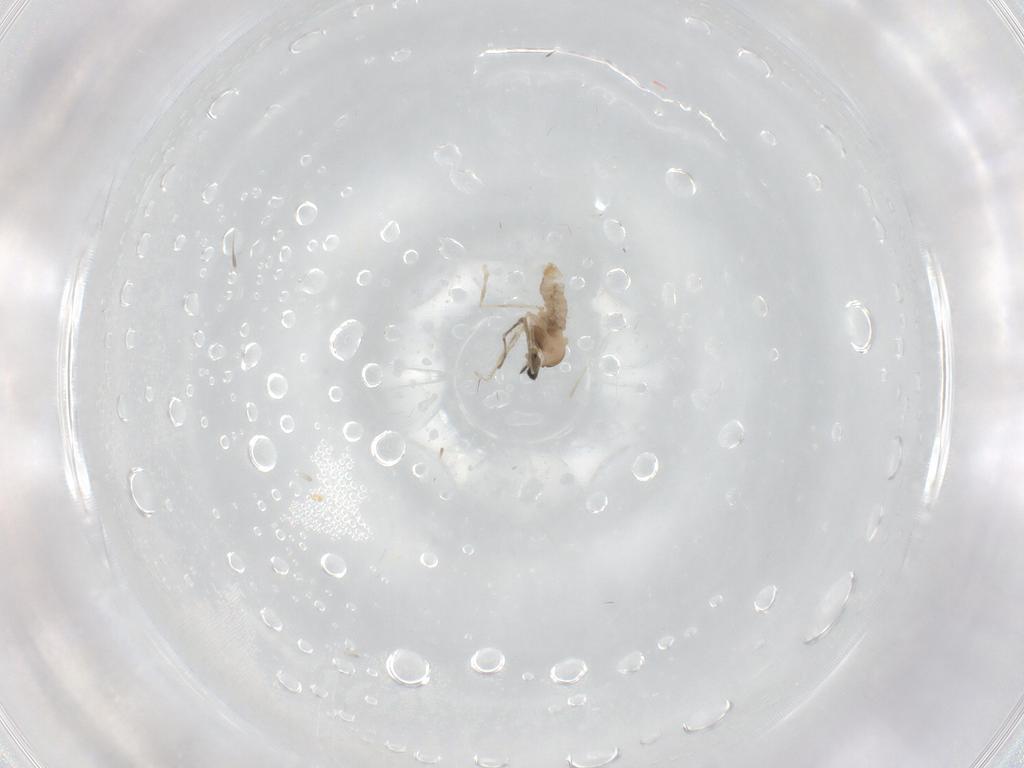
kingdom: Animalia
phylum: Arthropoda
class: Insecta
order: Diptera
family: Cecidomyiidae
